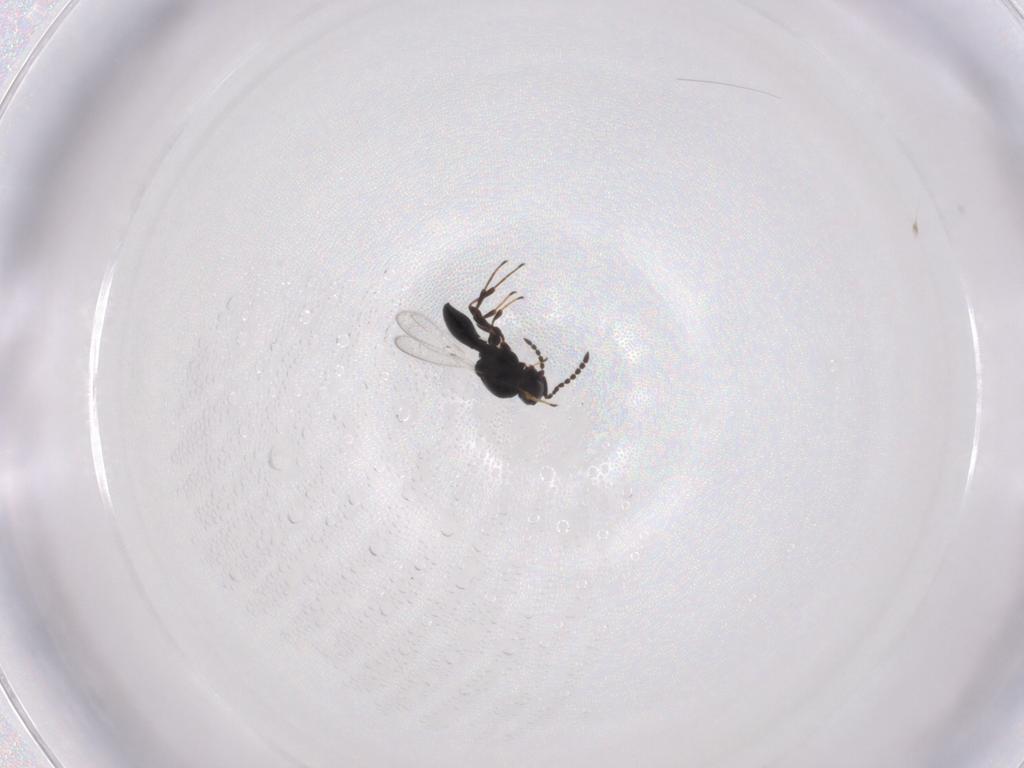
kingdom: Animalia
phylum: Arthropoda
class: Insecta
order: Hymenoptera
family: Platygastridae
